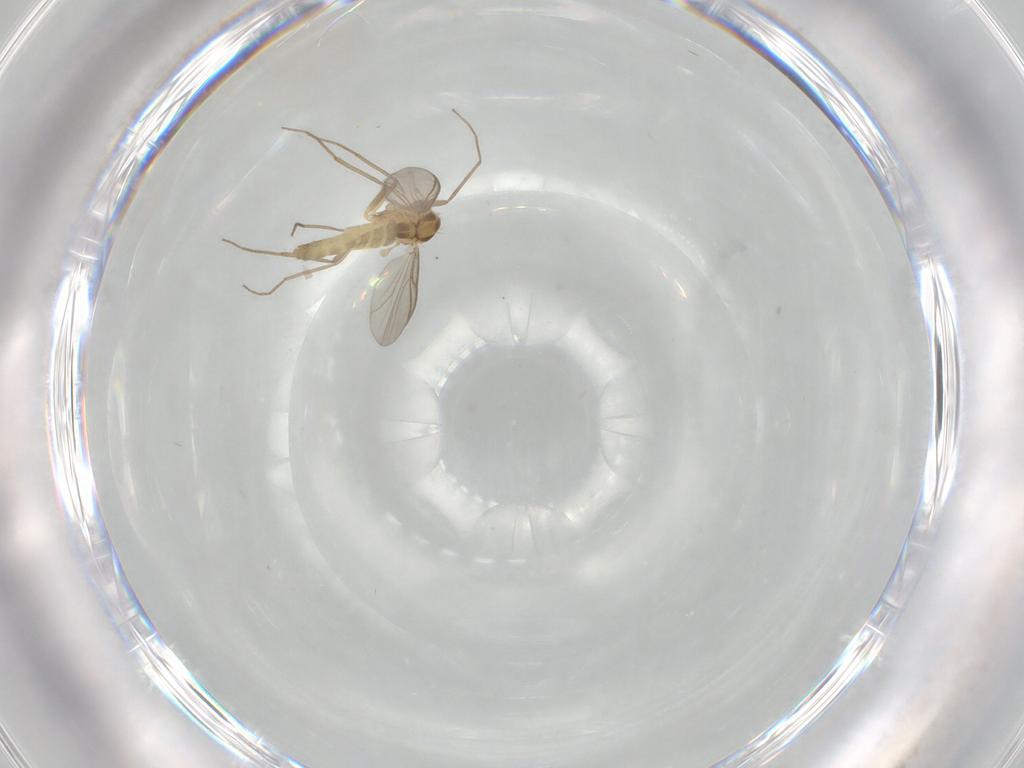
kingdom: Animalia
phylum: Arthropoda
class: Insecta
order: Diptera
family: Chironomidae
